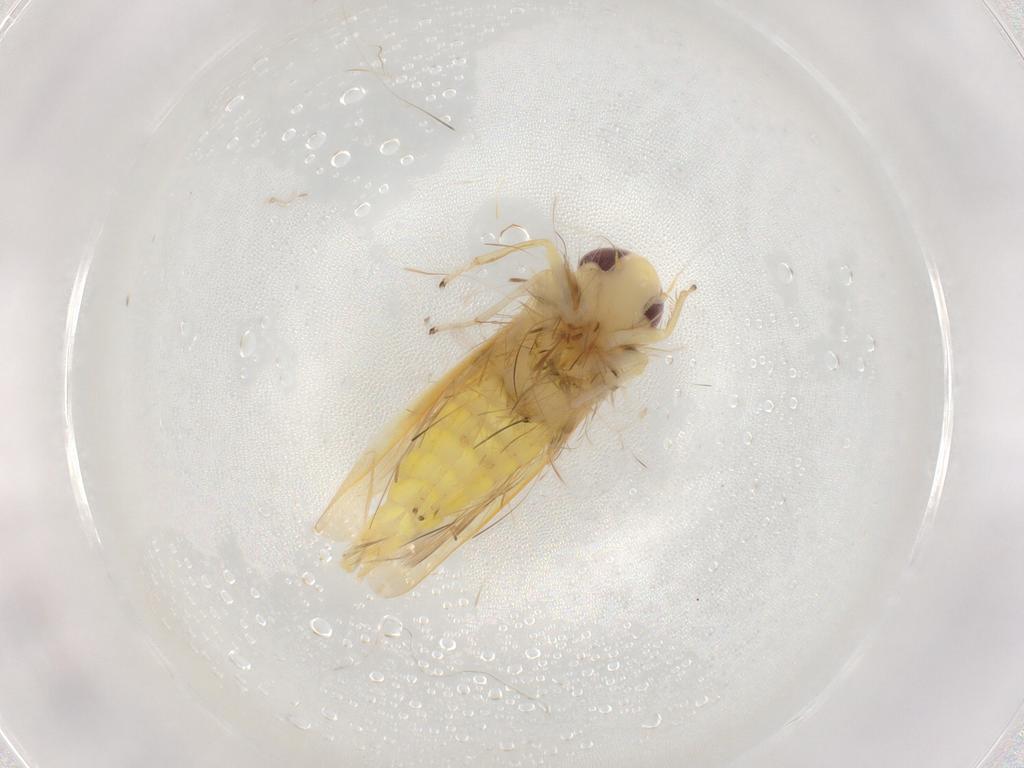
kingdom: Animalia
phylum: Arthropoda
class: Insecta
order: Hemiptera
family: Cicadellidae
